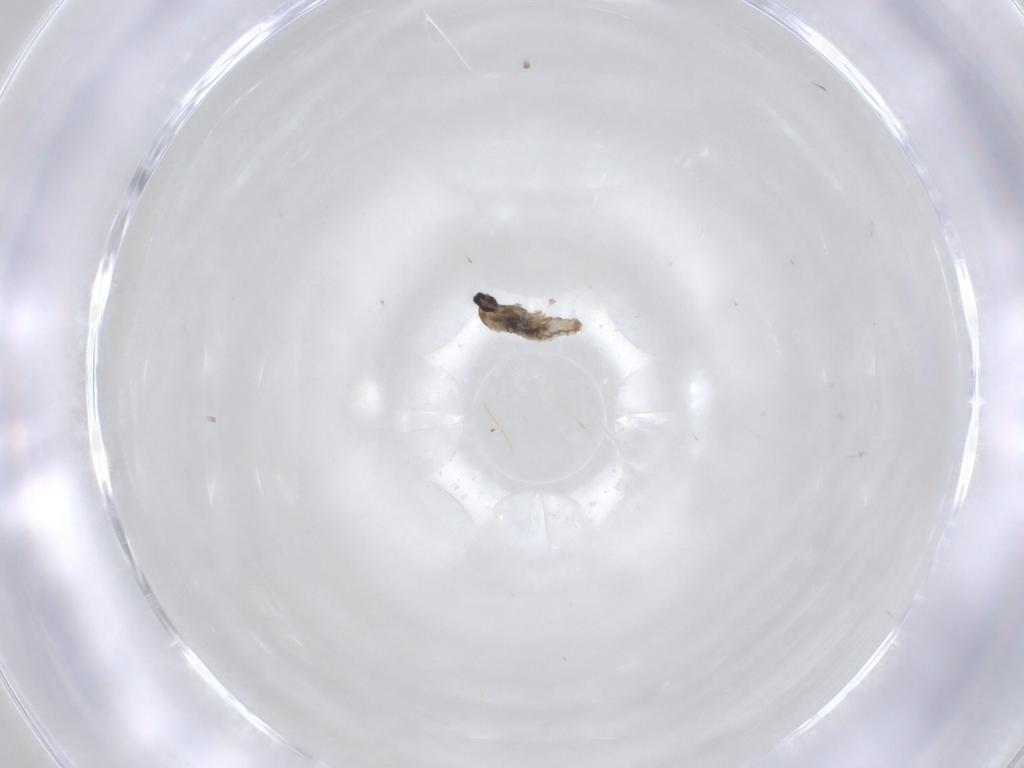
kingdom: Animalia
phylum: Arthropoda
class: Insecta
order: Diptera
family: Cecidomyiidae
